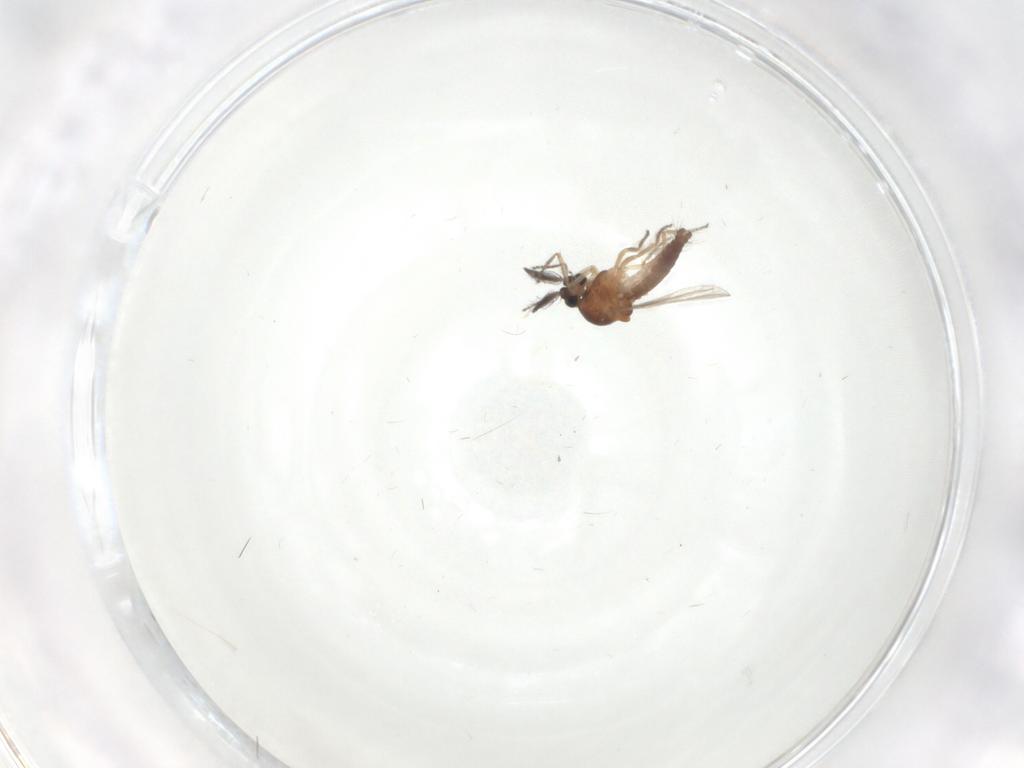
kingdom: Animalia
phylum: Arthropoda
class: Insecta
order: Diptera
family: Ceratopogonidae
